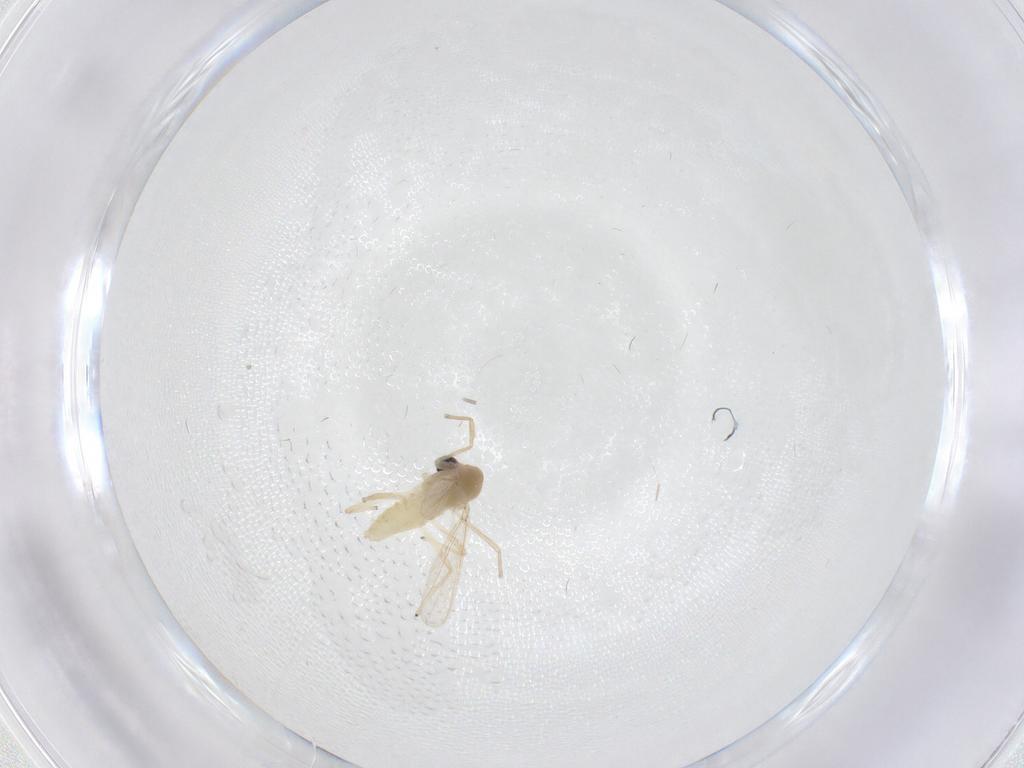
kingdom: Animalia
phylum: Arthropoda
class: Insecta
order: Diptera
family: Chironomidae
